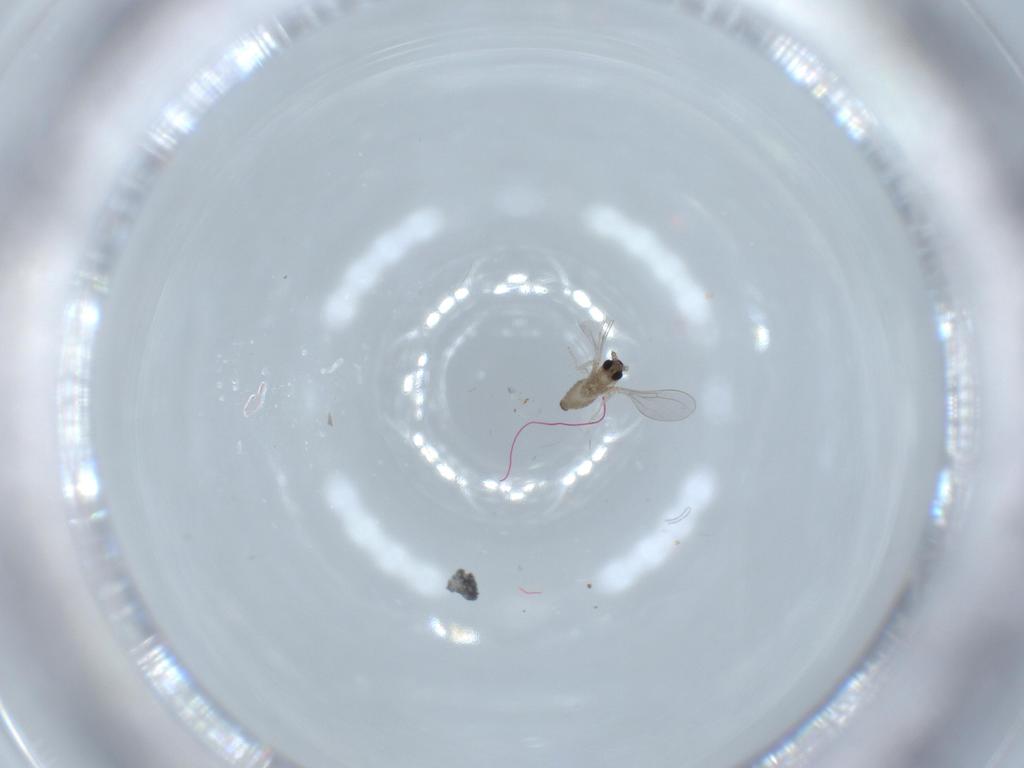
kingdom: Animalia
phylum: Arthropoda
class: Insecta
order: Diptera
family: Cecidomyiidae
